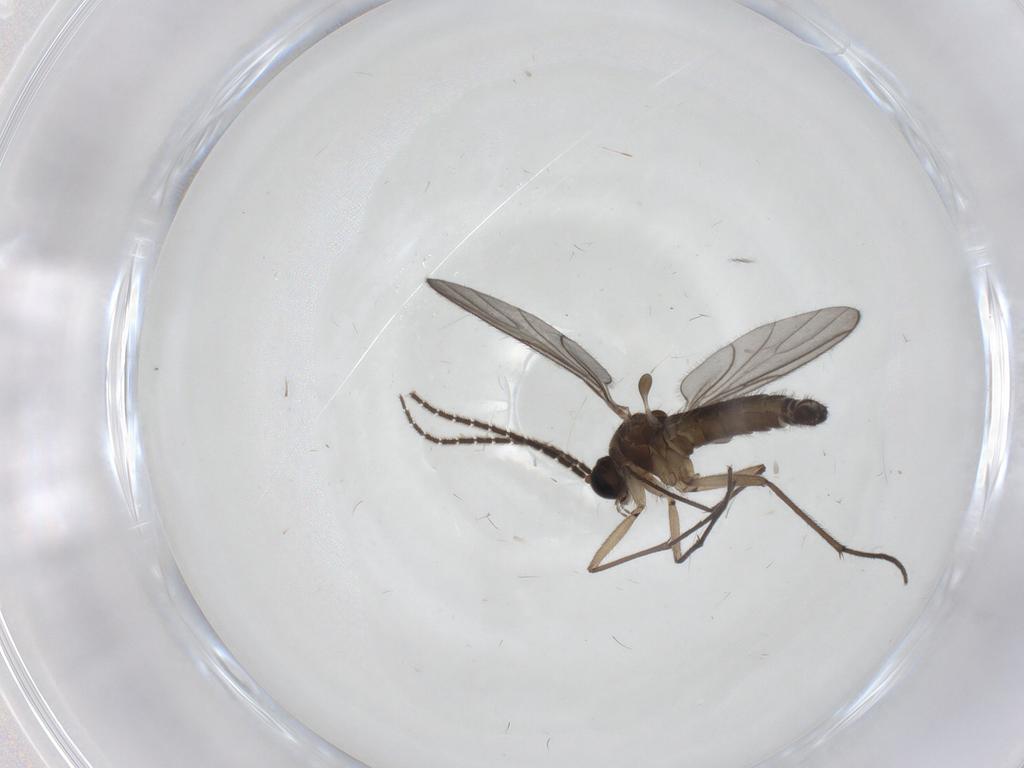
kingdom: Animalia
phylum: Arthropoda
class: Insecta
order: Diptera
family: Sciaridae
